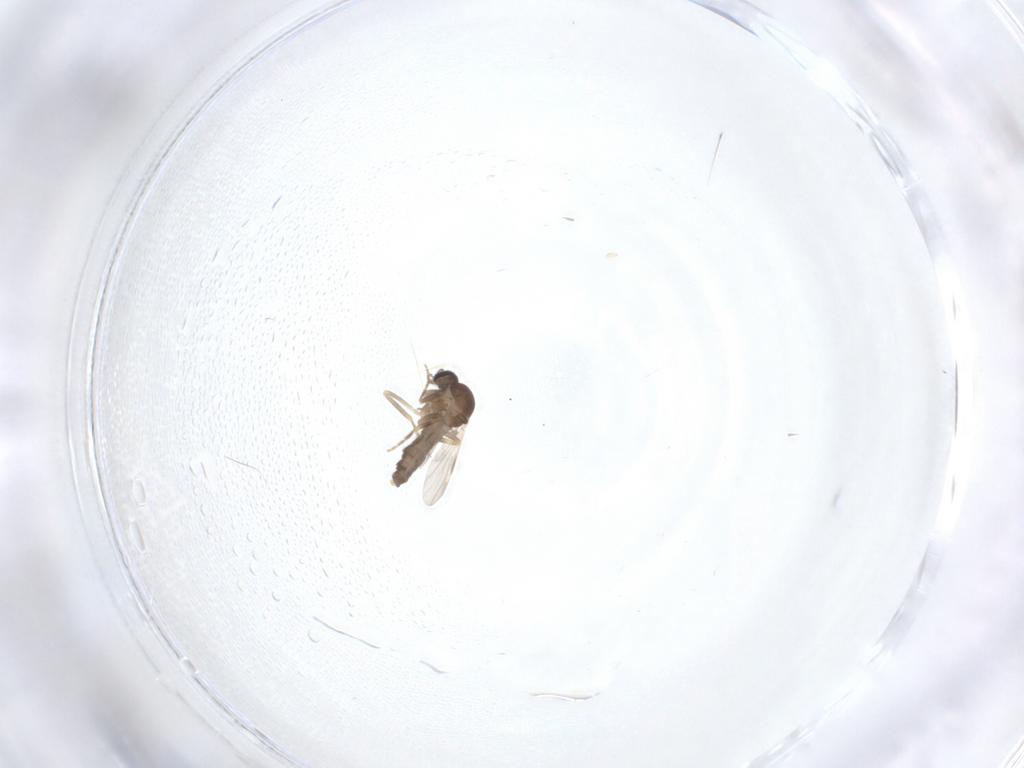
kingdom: Animalia
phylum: Arthropoda
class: Insecta
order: Diptera
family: Ceratopogonidae
